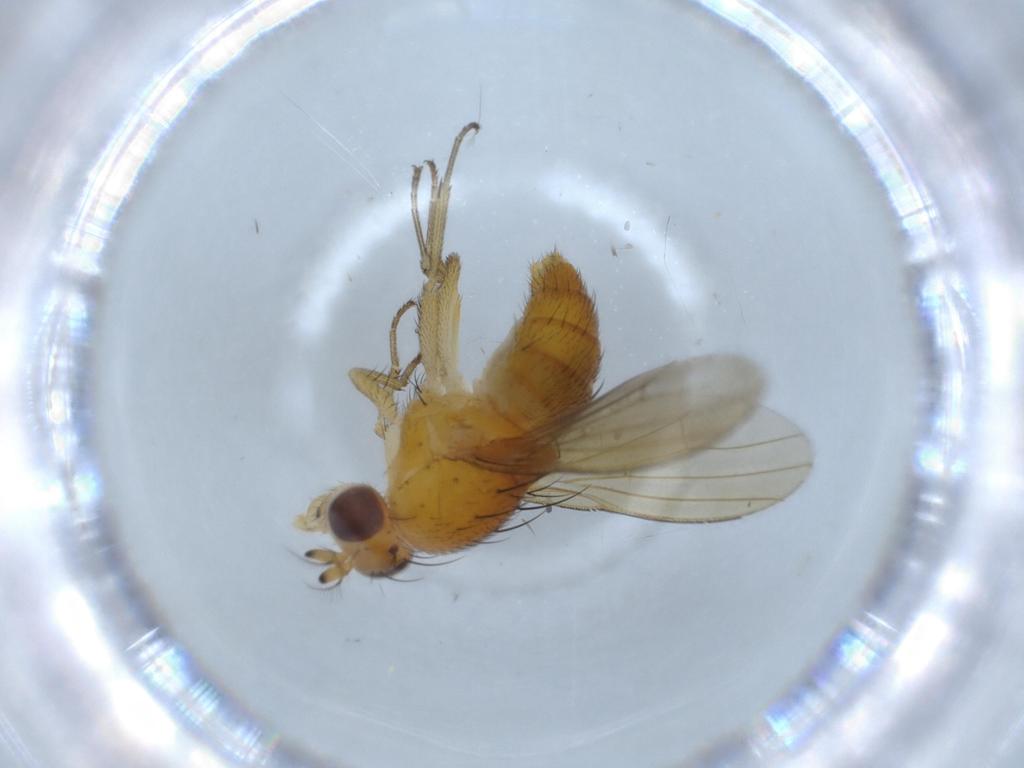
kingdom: Animalia
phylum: Arthropoda
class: Insecta
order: Diptera
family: Lauxaniidae
